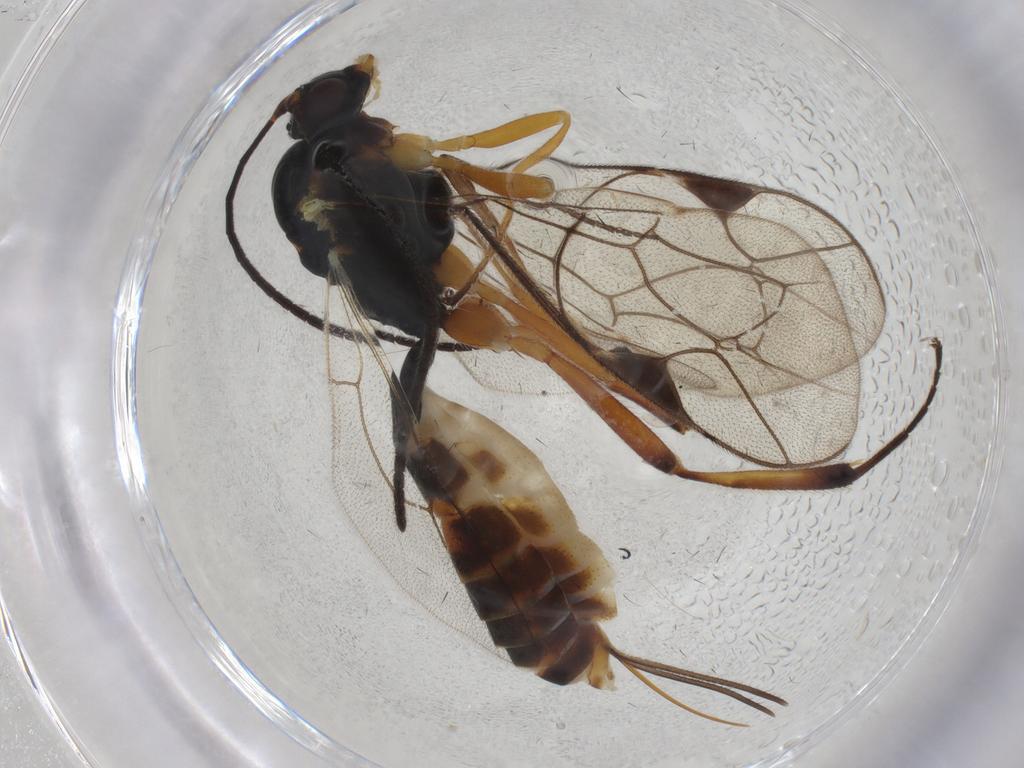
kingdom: Animalia
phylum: Arthropoda
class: Insecta
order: Hymenoptera
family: Ichneumonidae
